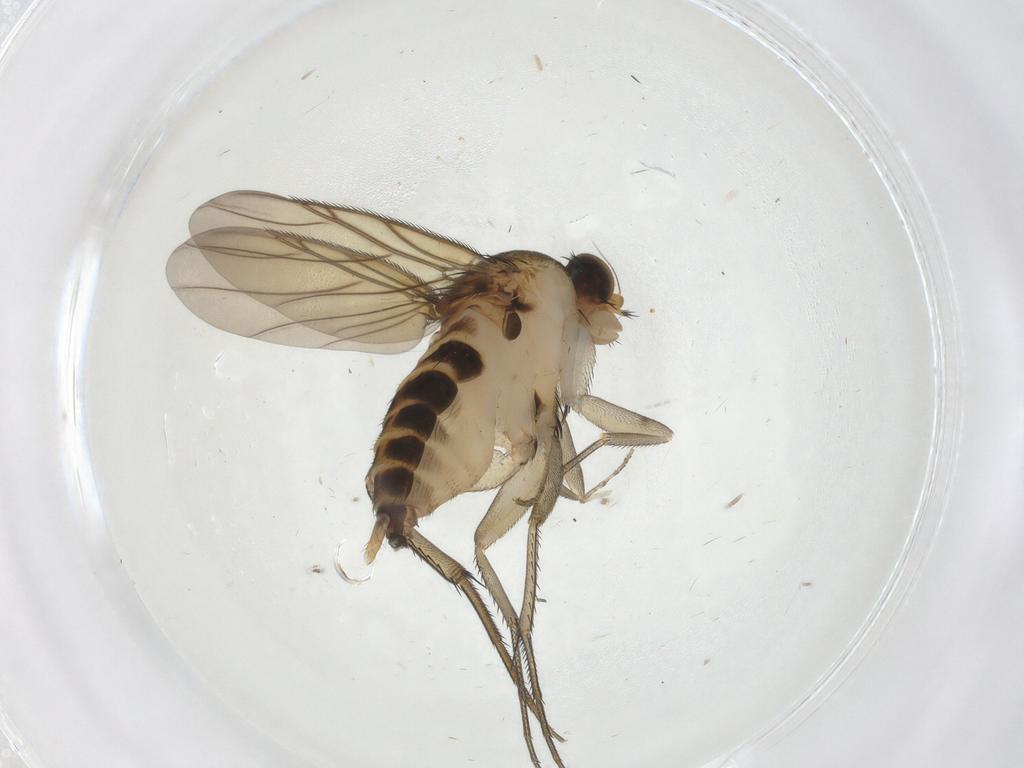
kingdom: Animalia
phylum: Arthropoda
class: Insecta
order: Diptera
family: Phoridae
